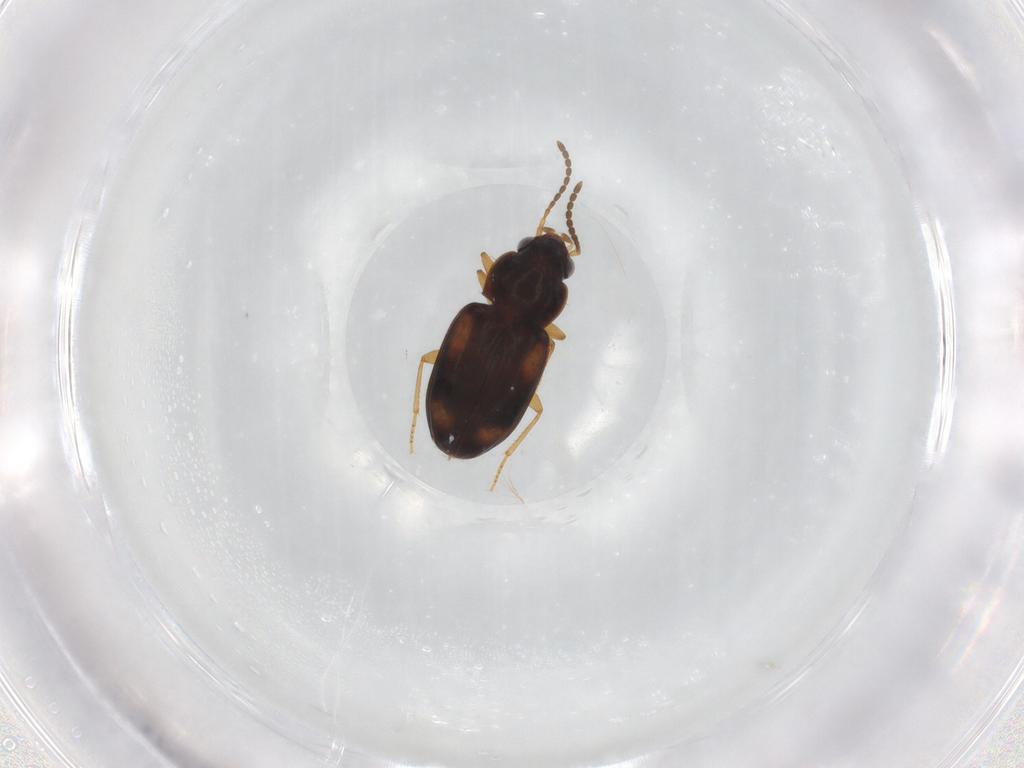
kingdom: Animalia
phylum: Arthropoda
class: Insecta
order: Coleoptera
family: Carabidae
